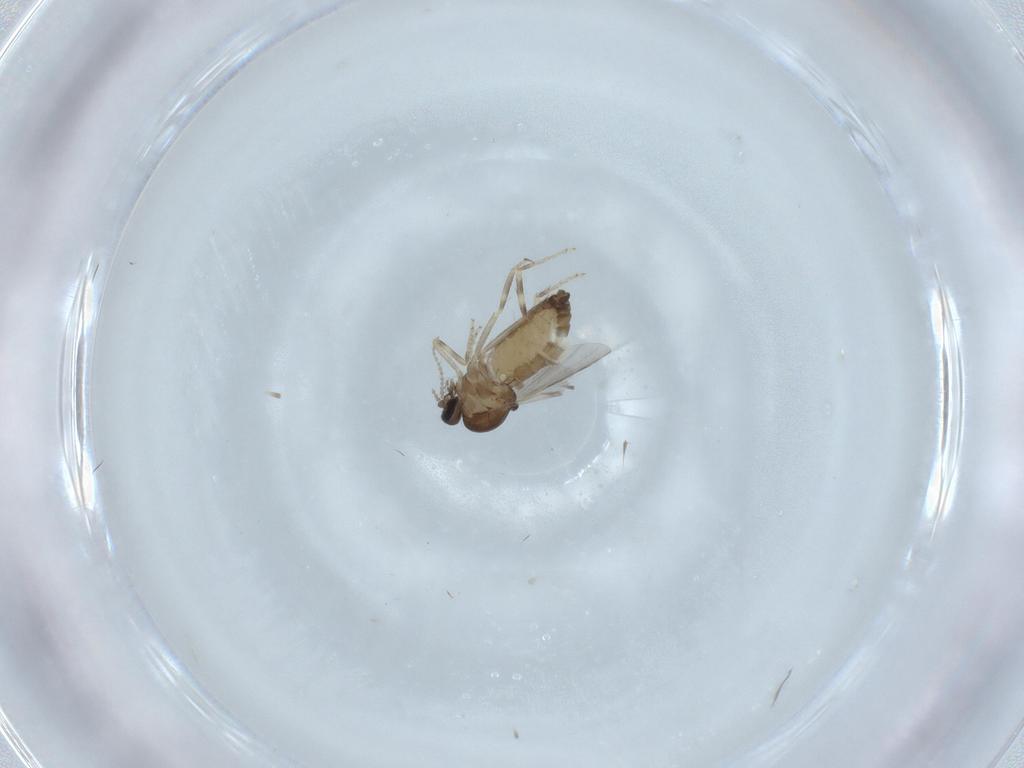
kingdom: Animalia
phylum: Arthropoda
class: Insecta
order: Diptera
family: Ceratopogonidae
